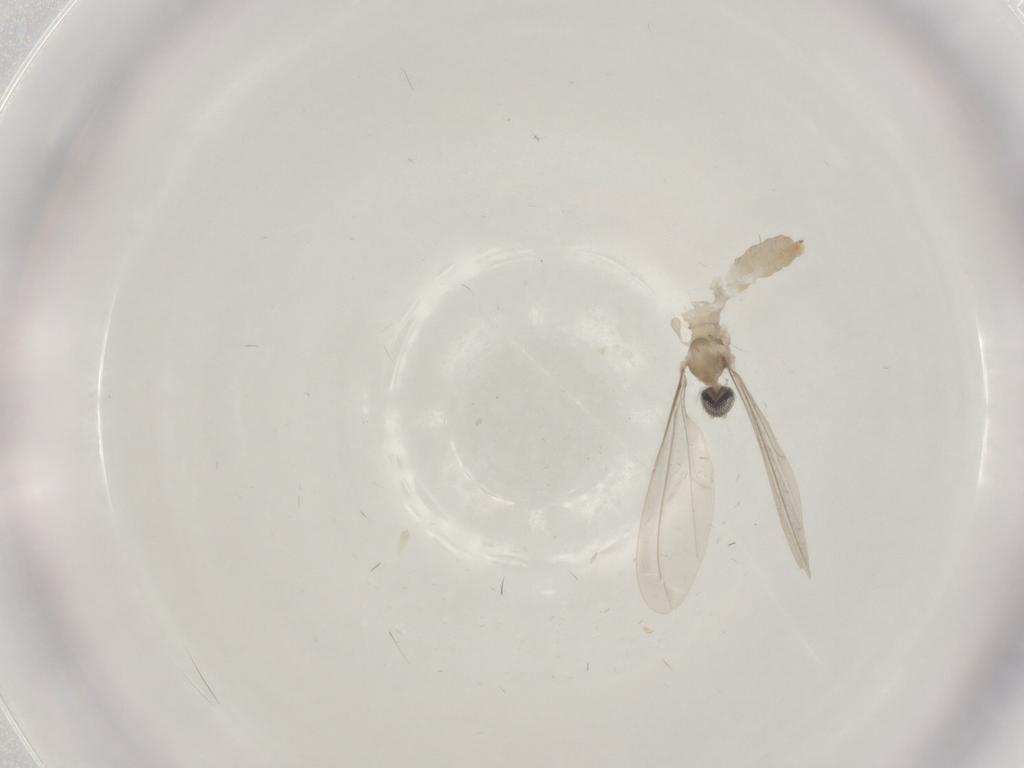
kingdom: Animalia
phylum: Arthropoda
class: Insecta
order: Diptera
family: Cecidomyiidae
